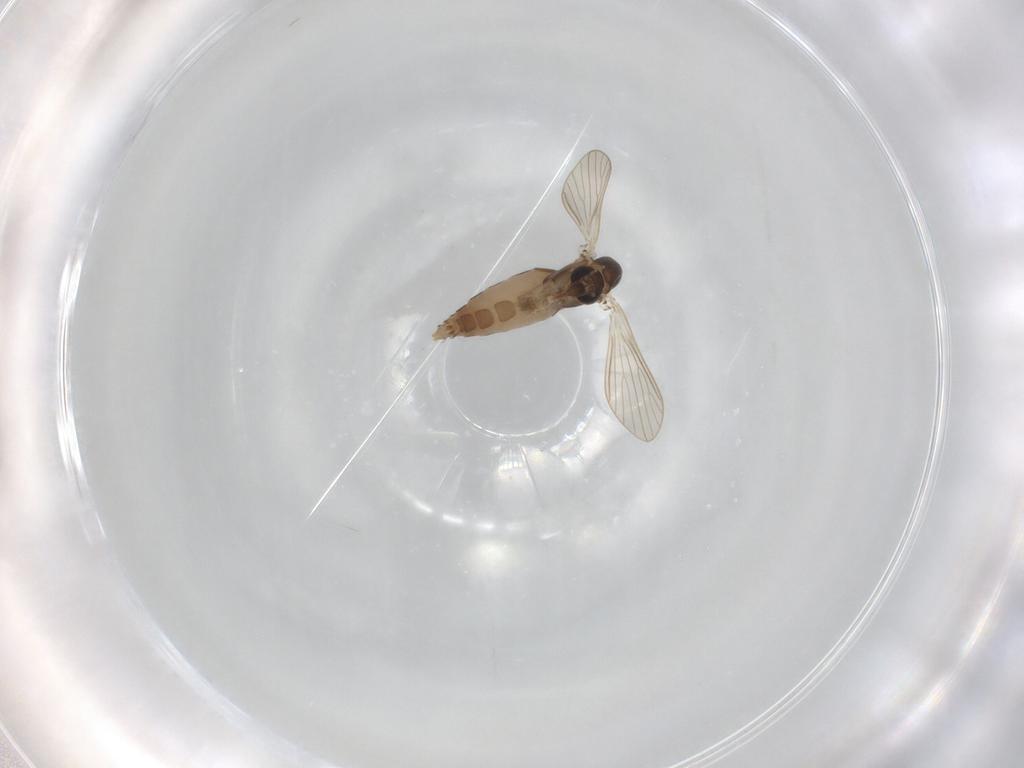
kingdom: Animalia
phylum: Arthropoda
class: Insecta
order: Diptera
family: Psychodidae
